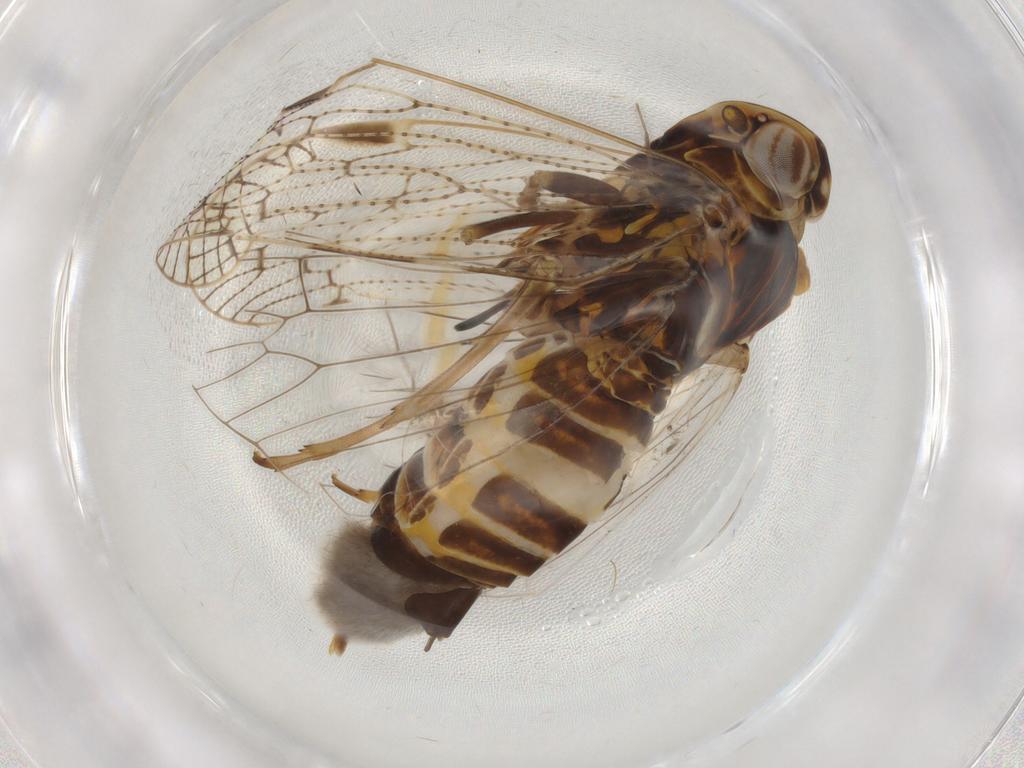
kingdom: Animalia
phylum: Arthropoda
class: Insecta
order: Hemiptera
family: Cixiidae
